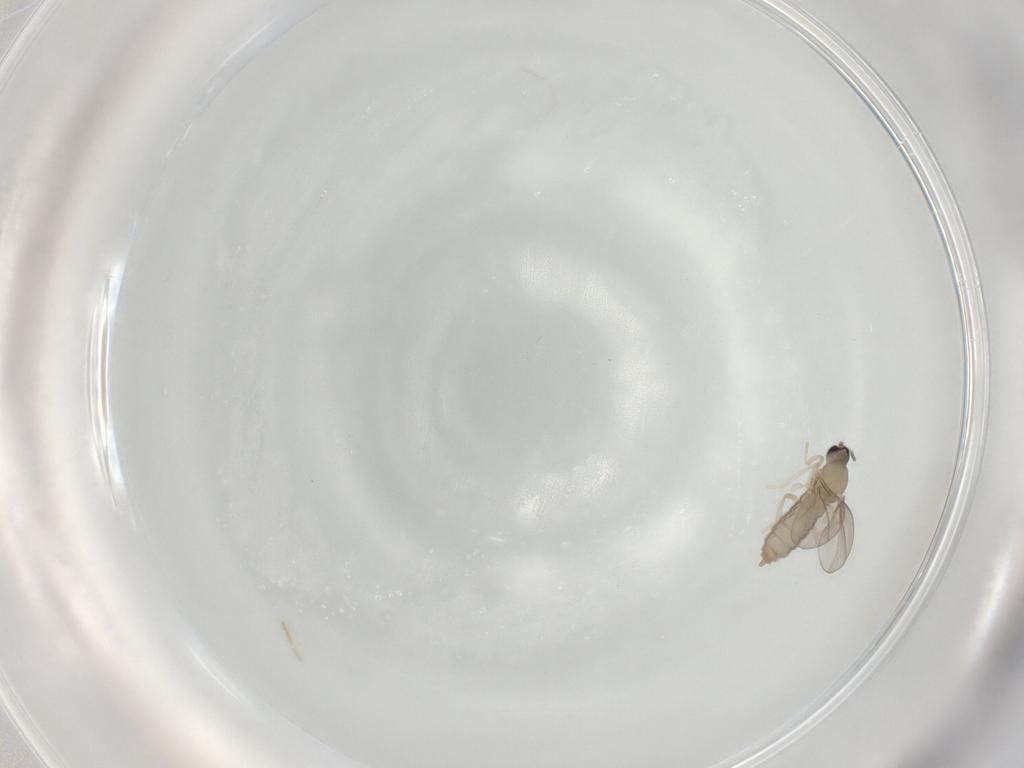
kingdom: Animalia
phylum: Arthropoda
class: Insecta
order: Diptera
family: Cecidomyiidae
